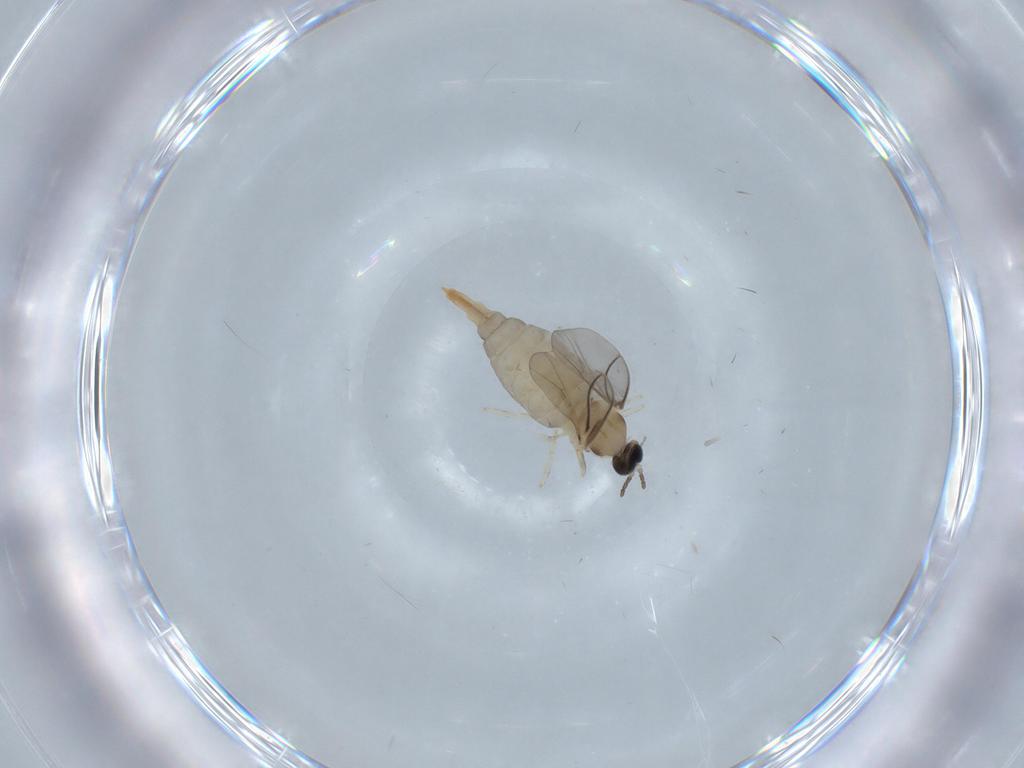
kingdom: Animalia
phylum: Arthropoda
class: Insecta
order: Diptera
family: Cecidomyiidae
